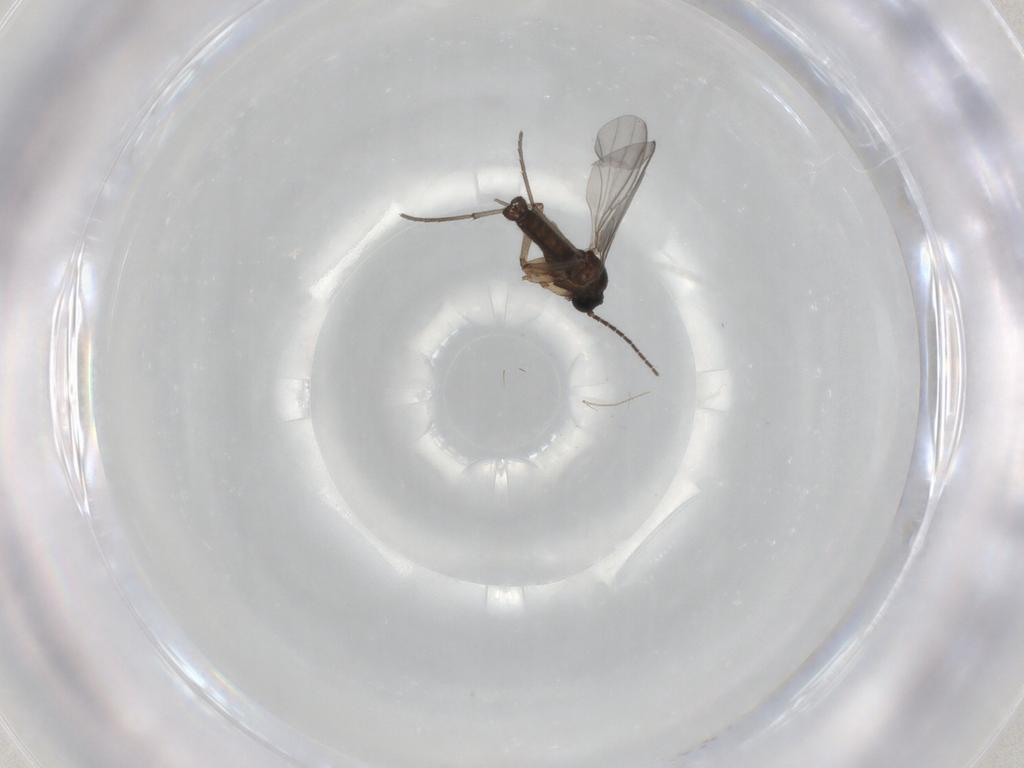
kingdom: Animalia
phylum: Arthropoda
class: Insecta
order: Diptera
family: Sciaridae
